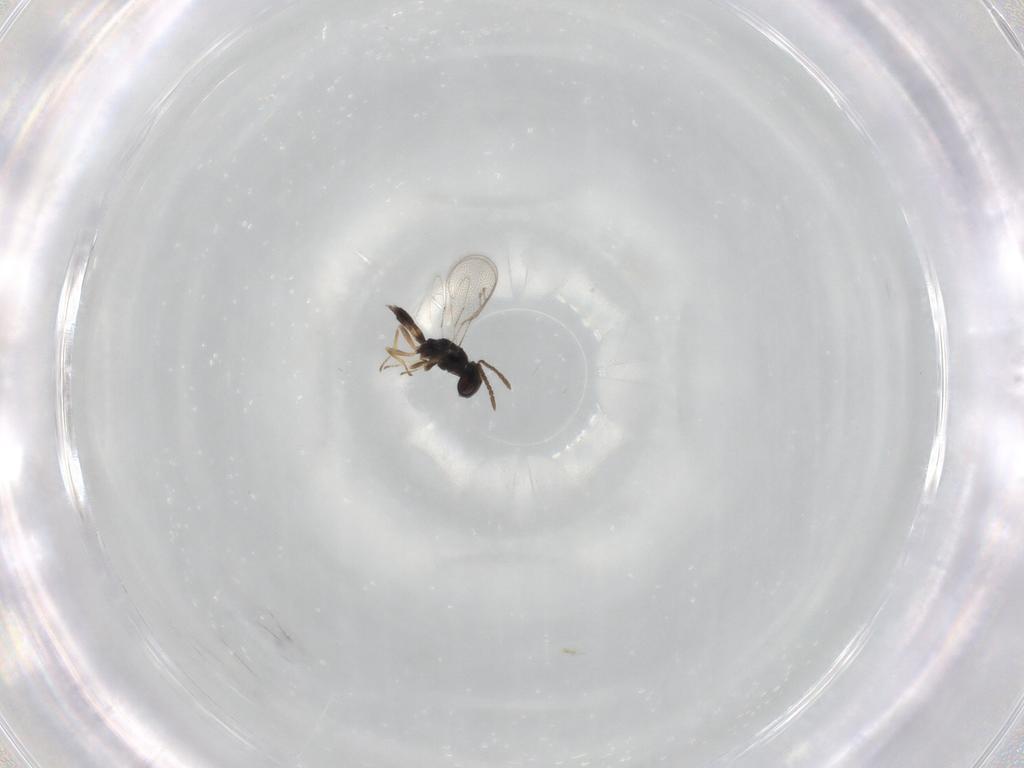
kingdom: Animalia
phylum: Arthropoda
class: Insecta
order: Hymenoptera
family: Pteromalidae
